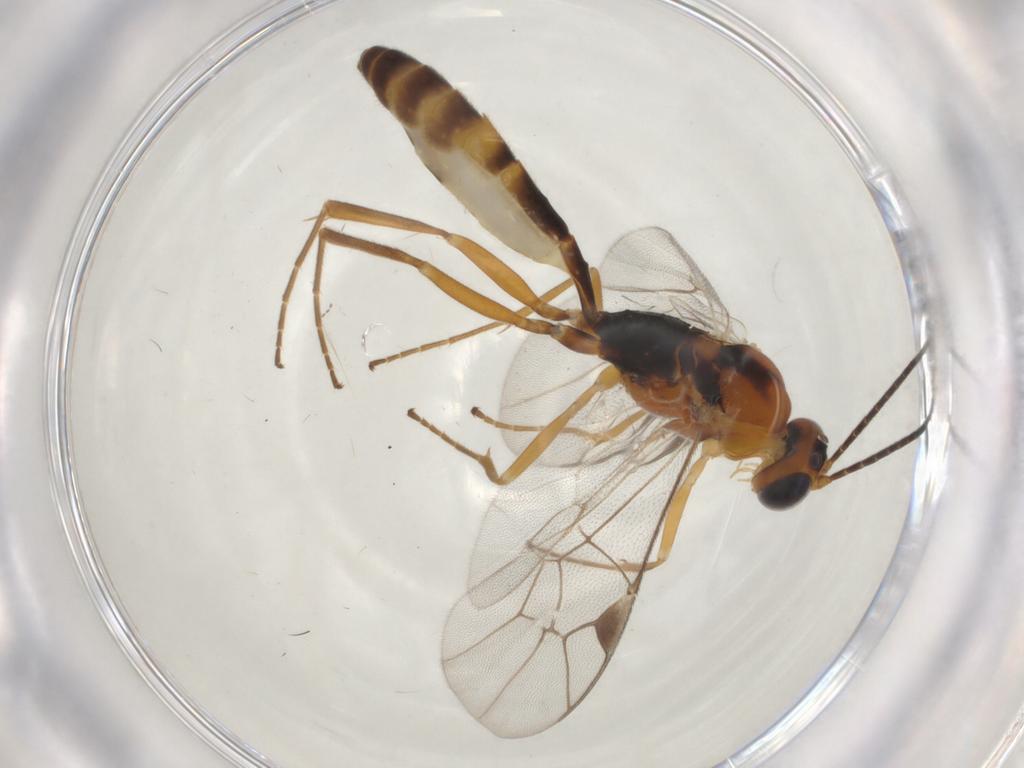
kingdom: Animalia
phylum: Arthropoda
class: Insecta
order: Hymenoptera
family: Ichneumonidae
